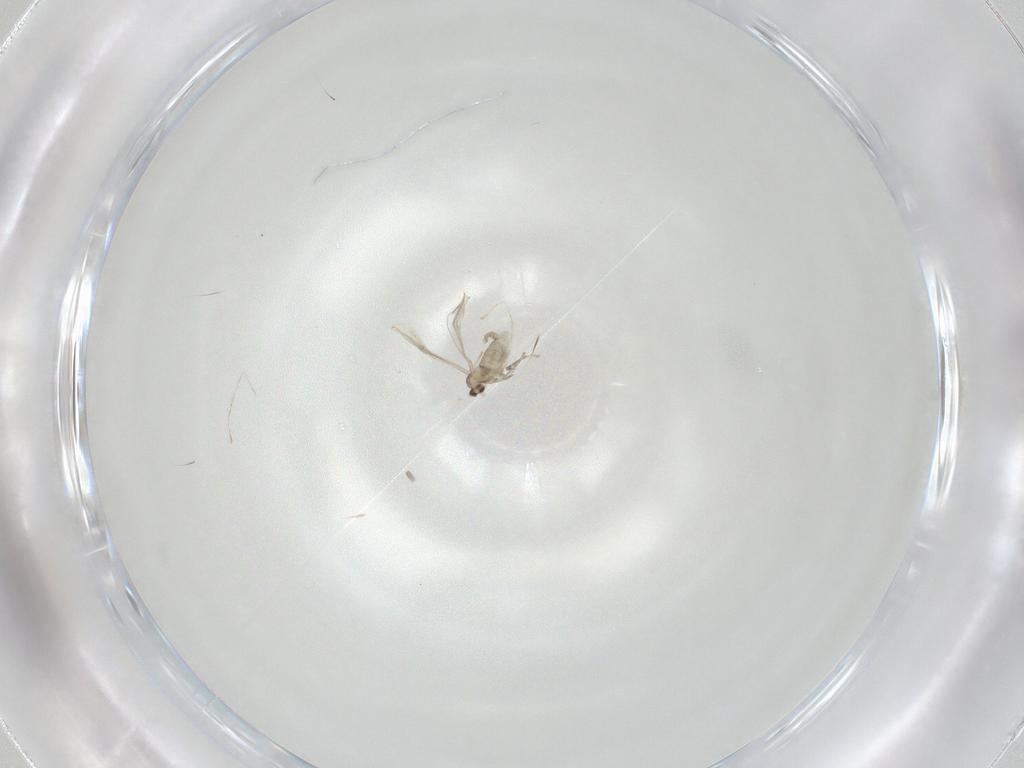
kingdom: Animalia
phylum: Arthropoda
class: Insecta
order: Diptera
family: Cecidomyiidae
